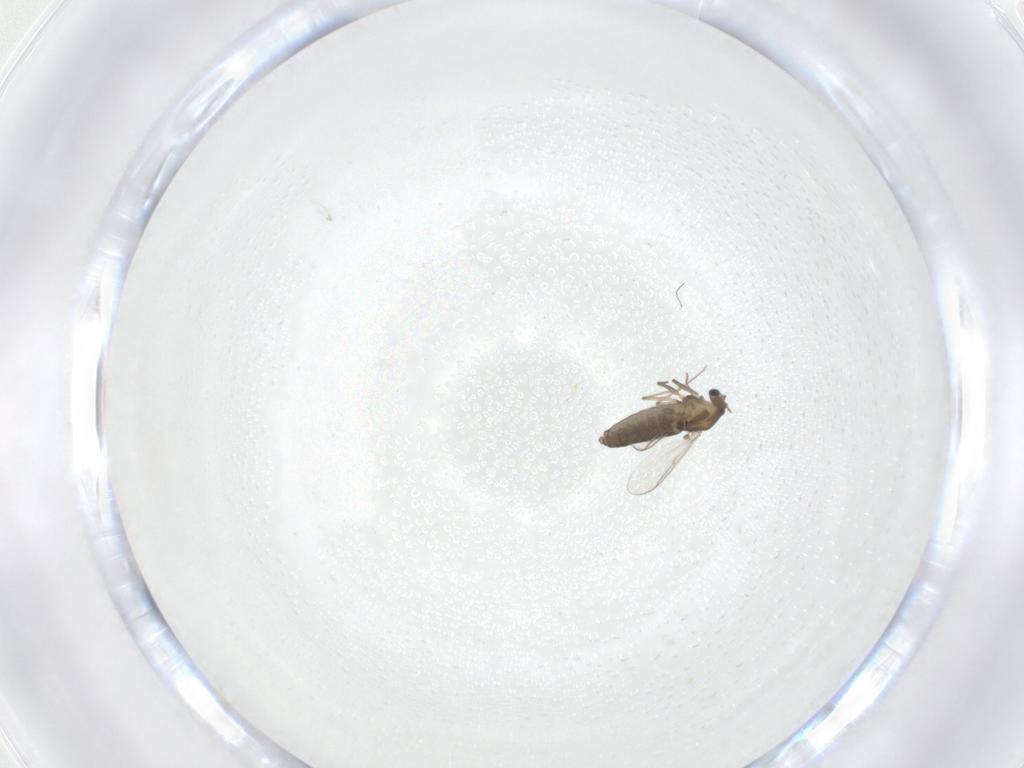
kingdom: Animalia
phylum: Arthropoda
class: Insecta
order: Diptera
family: Chironomidae
